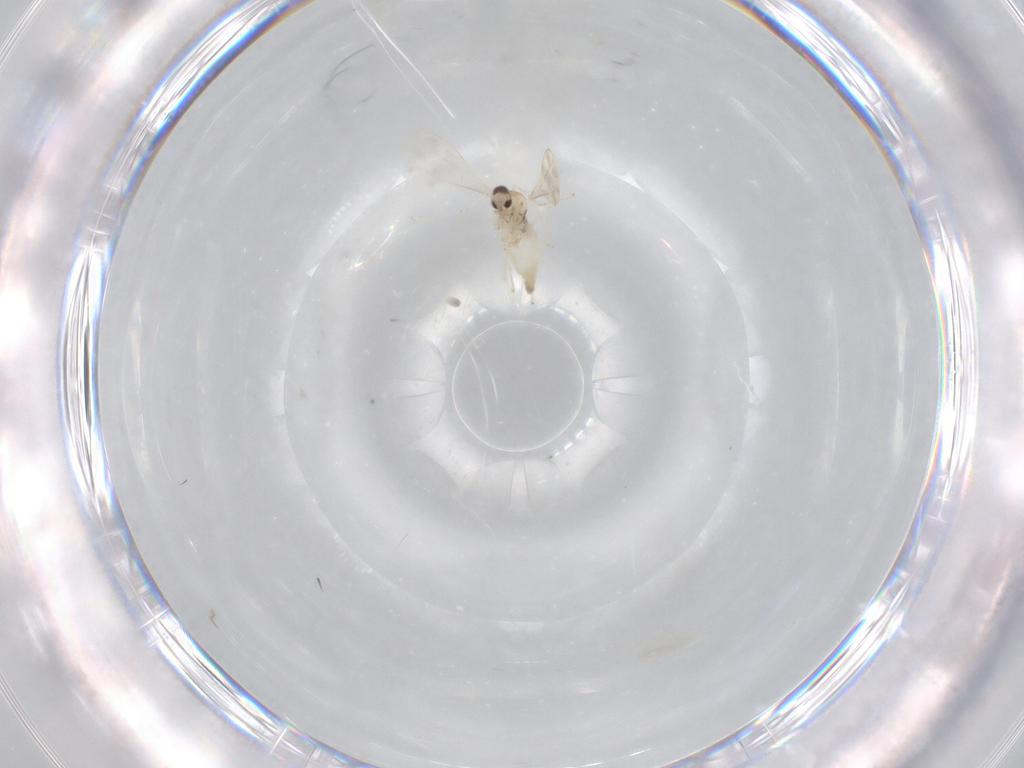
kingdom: Animalia
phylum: Arthropoda
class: Insecta
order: Diptera
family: Cecidomyiidae
